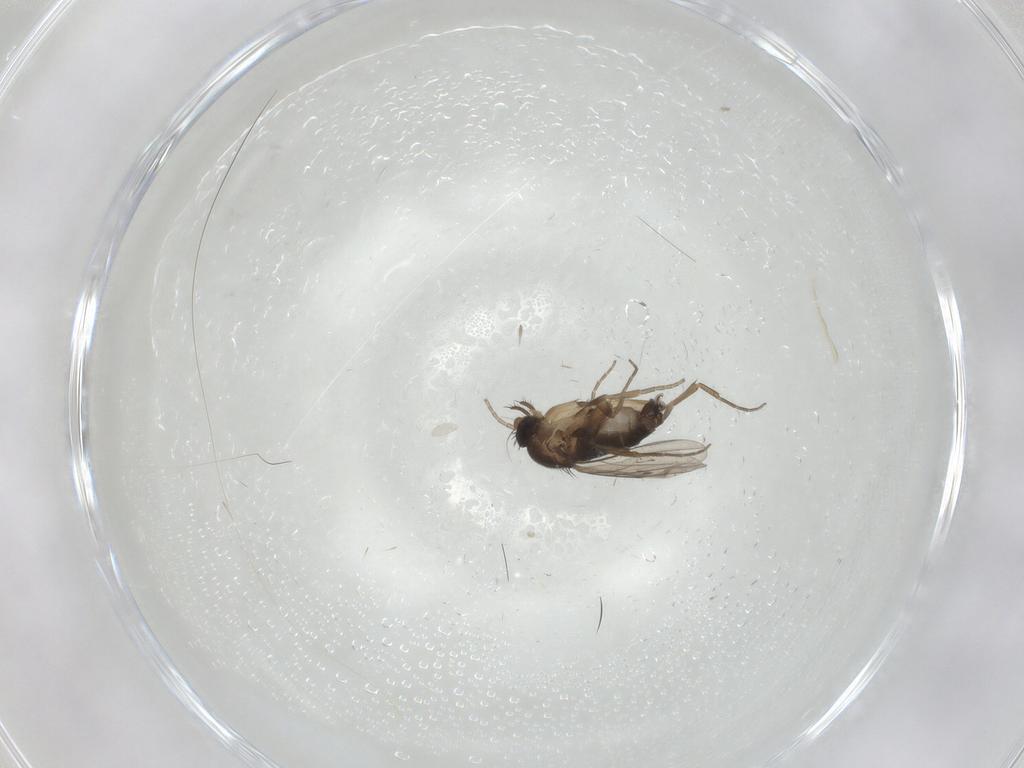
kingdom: Animalia
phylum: Arthropoda
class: Insecta
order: Diptera
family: Phoridae
